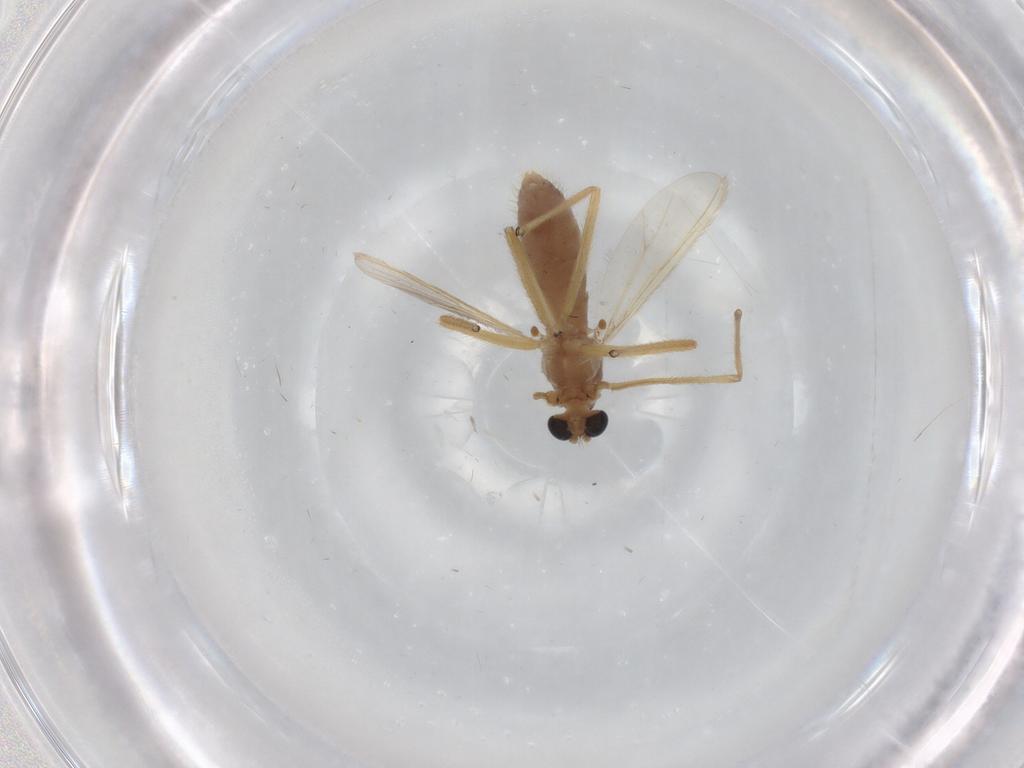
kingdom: Animalia
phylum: Arthropoda
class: Insecta
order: Diptera
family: Chironomidae
